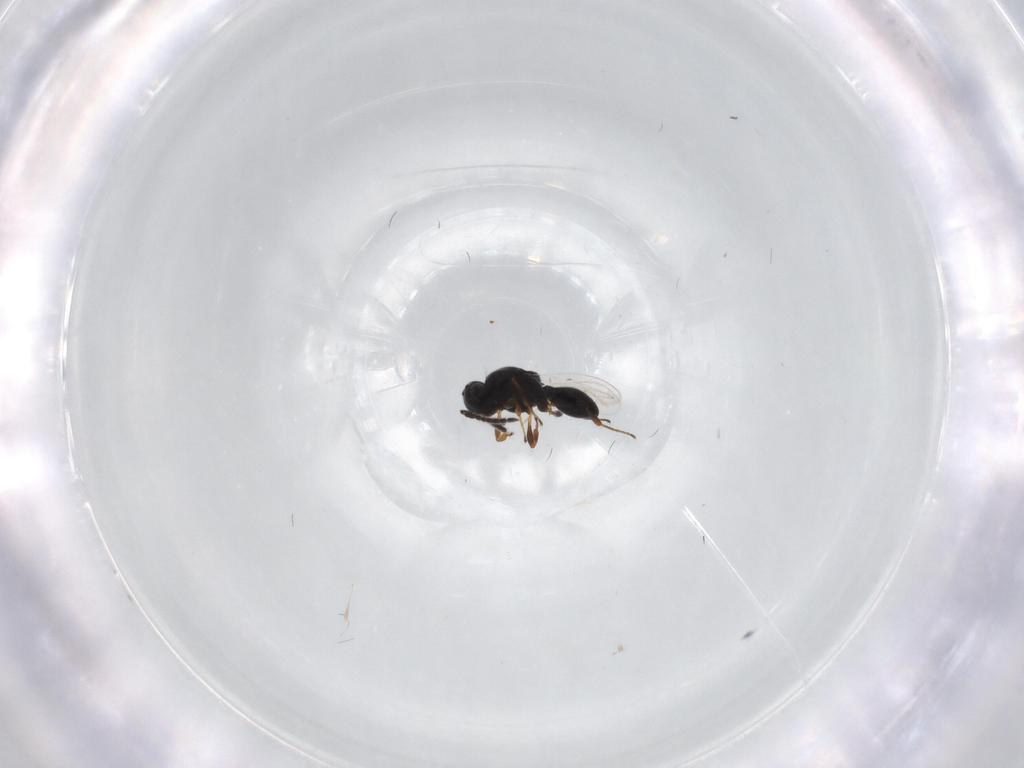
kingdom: Animalia
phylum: Arthropoda
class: Insecta
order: Hymenoptera
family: Platygastridae
